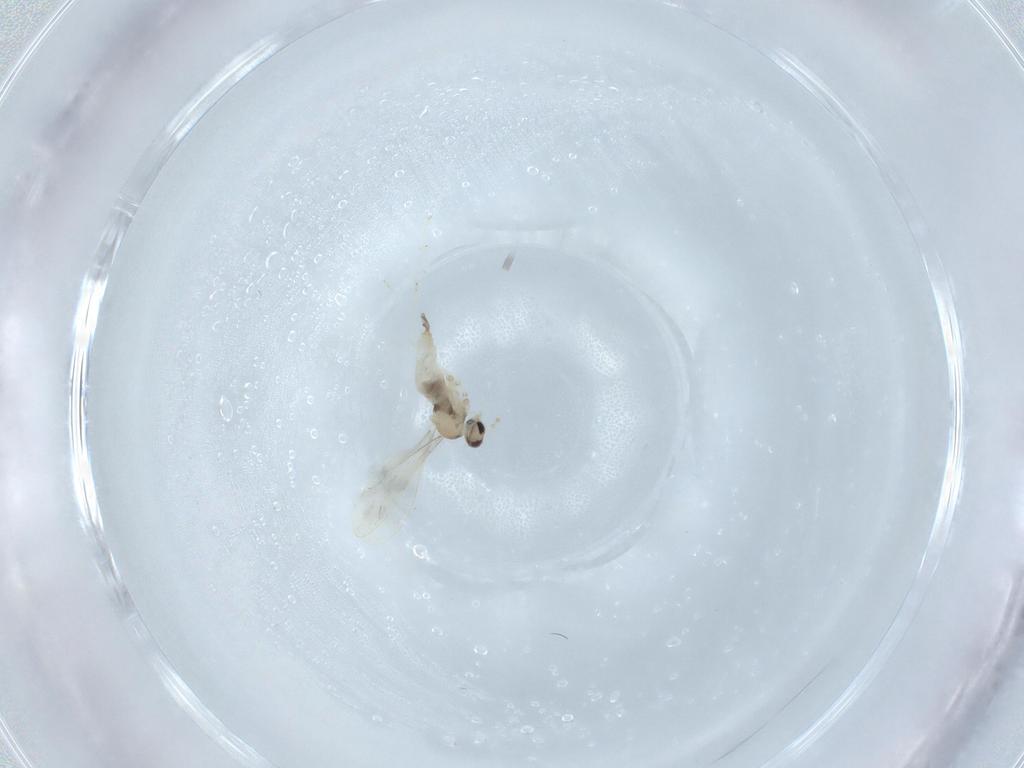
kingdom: Animalia
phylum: Arthropoda
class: Insecta
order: Diptera
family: Cecidomyiidae
